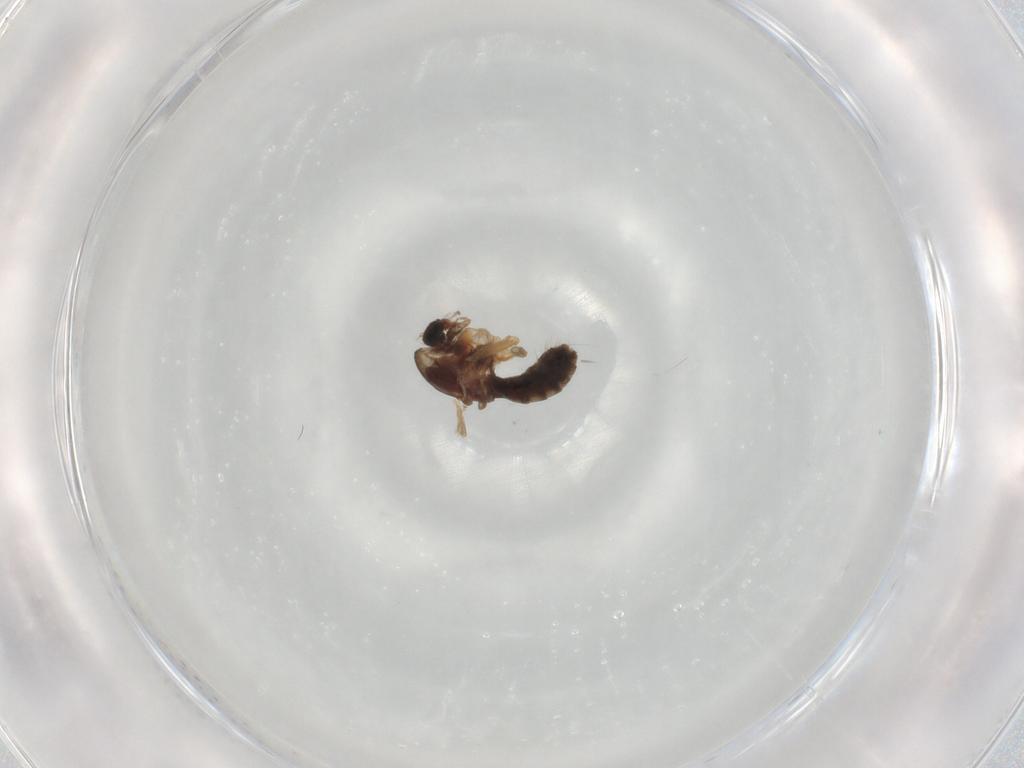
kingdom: Animalia
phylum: Arthropoda
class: Insecta
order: Diptera
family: Chironomidae
